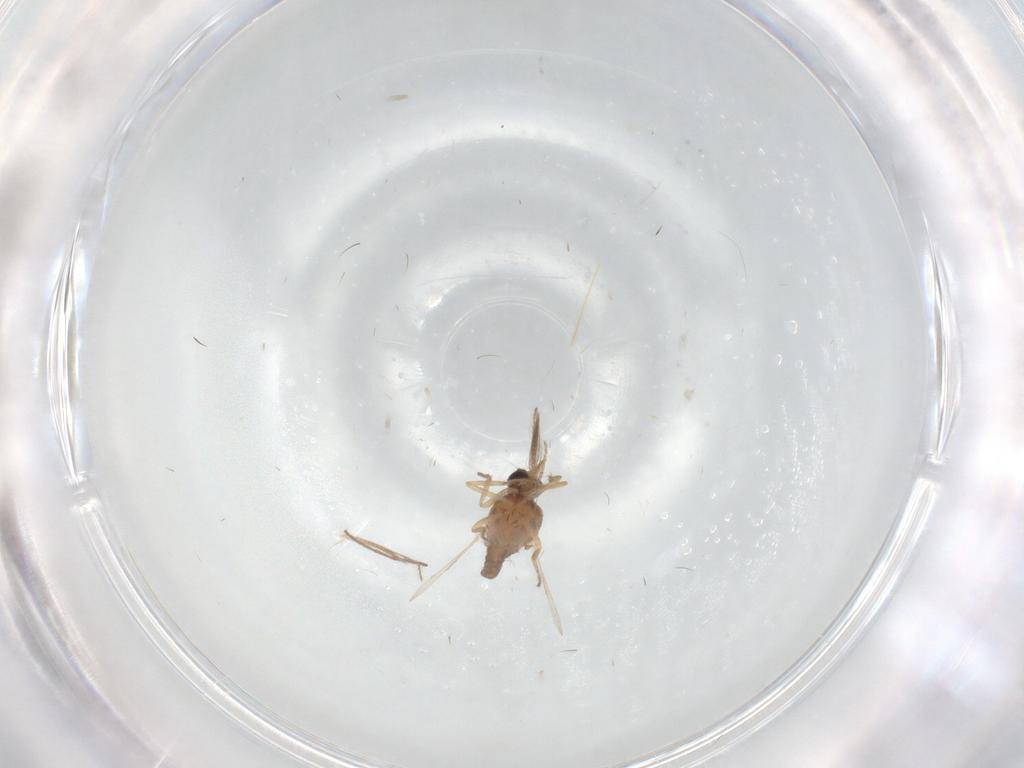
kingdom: Animalia
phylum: Arthropoda
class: Insecta
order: Diptera
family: Ceratopogonidae
